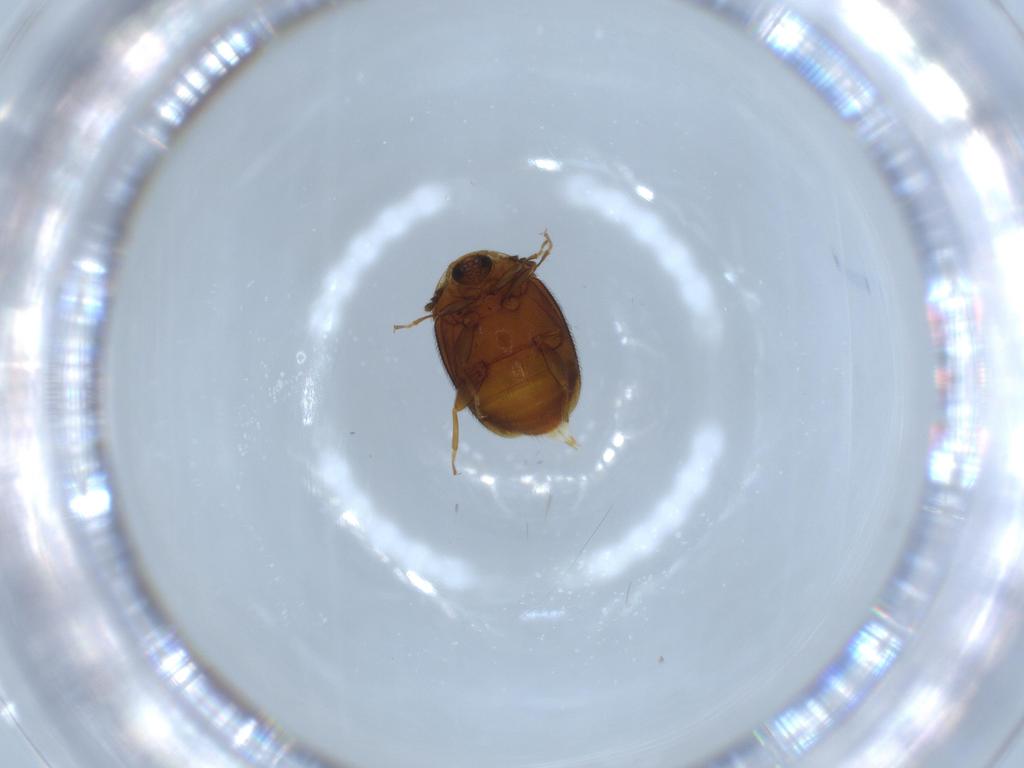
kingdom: Animalia
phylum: Arthropoda
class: Insecta
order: Coleoptera
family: Corylophidae
